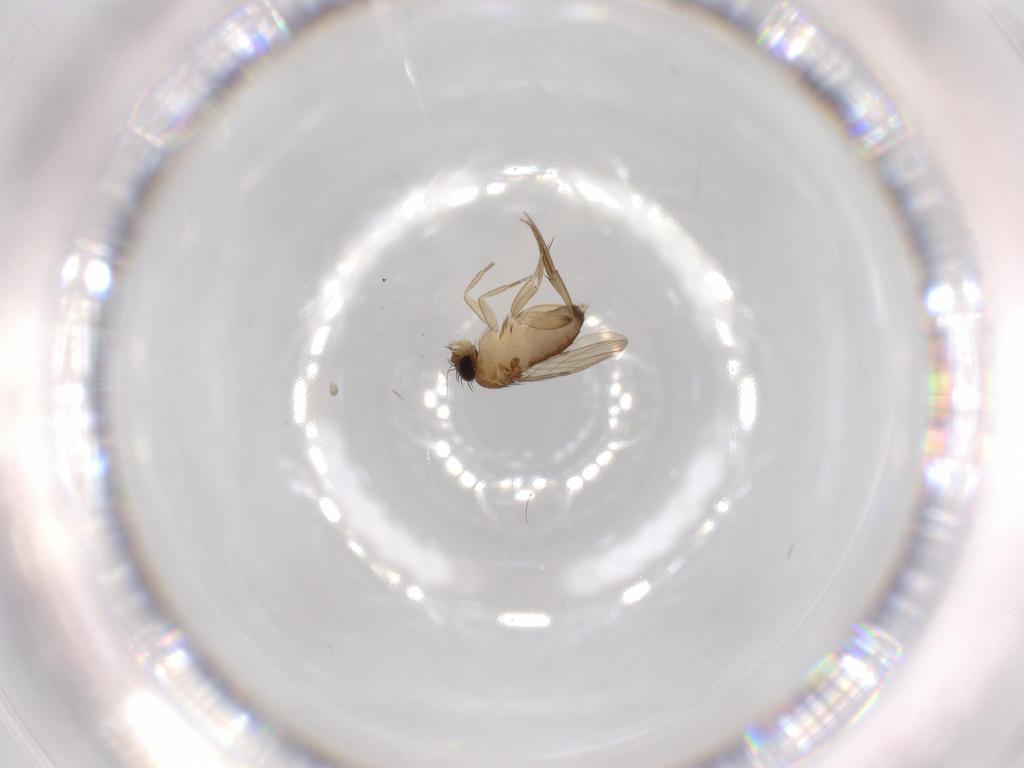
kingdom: Animalia
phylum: Arthropoda
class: Insecta
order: Diptera
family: Phoridae
